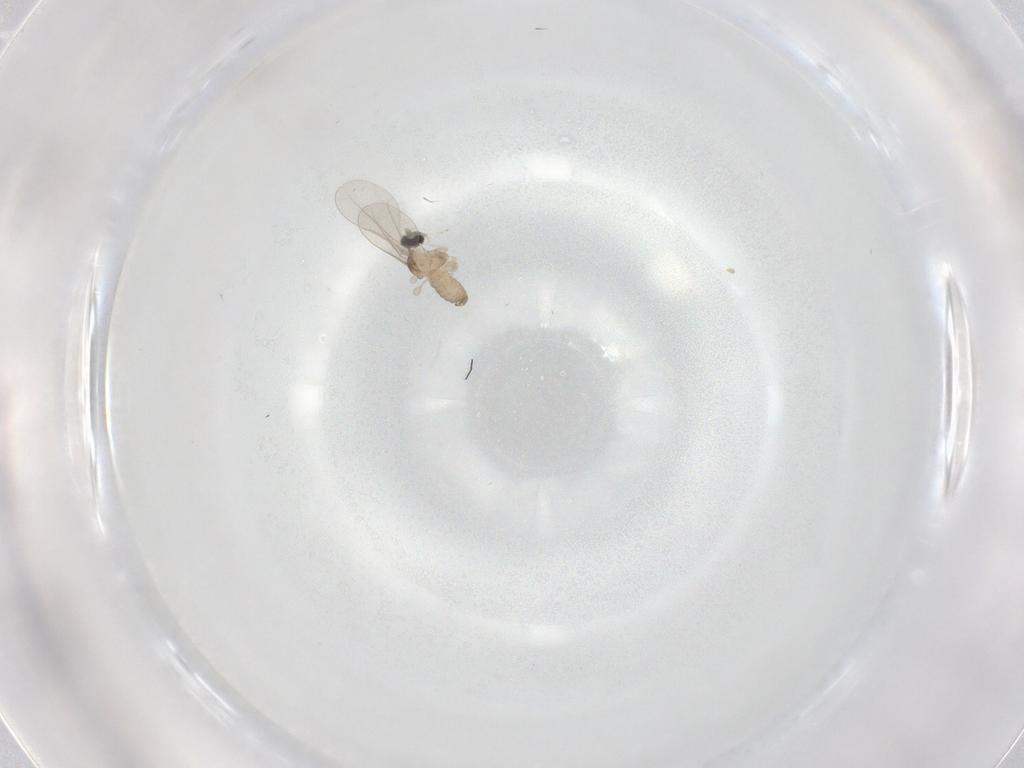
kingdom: Animalia
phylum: Arthropoda
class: Insecta
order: Diptera
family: Cecidomyiidae
